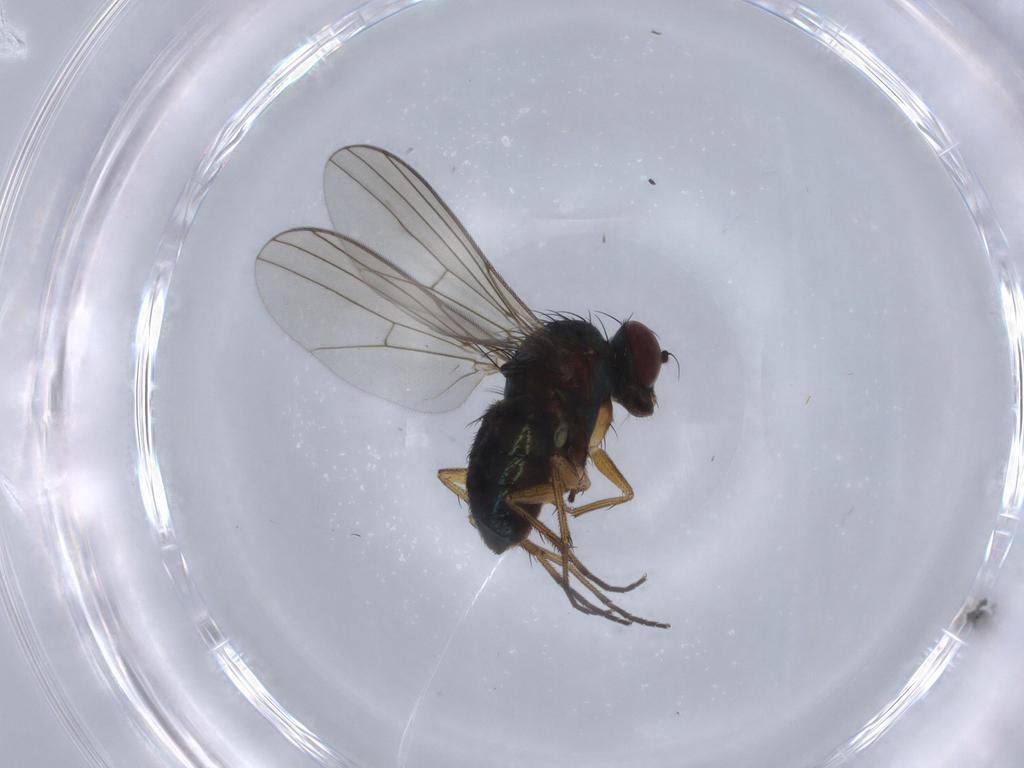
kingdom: Animalia
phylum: Arthropoda
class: Insecta
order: Diptera
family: Dolichopodidae
